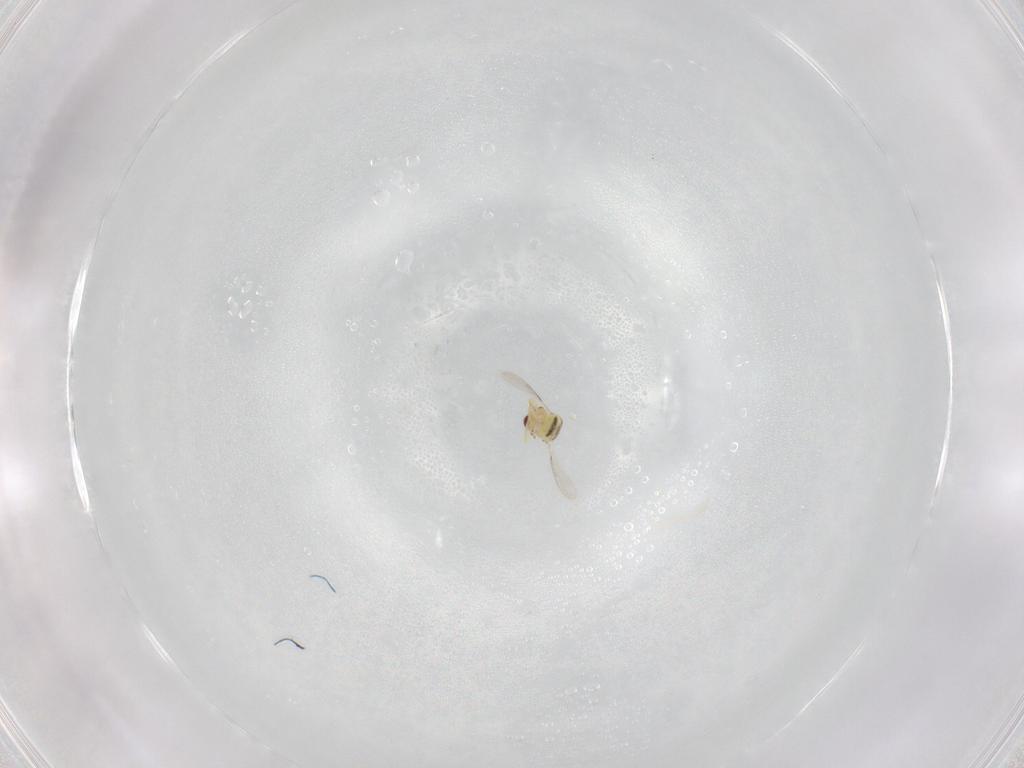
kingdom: Animalia
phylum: Arthropoda
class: Insecta
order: Hymenoptera
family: Eulophidae
